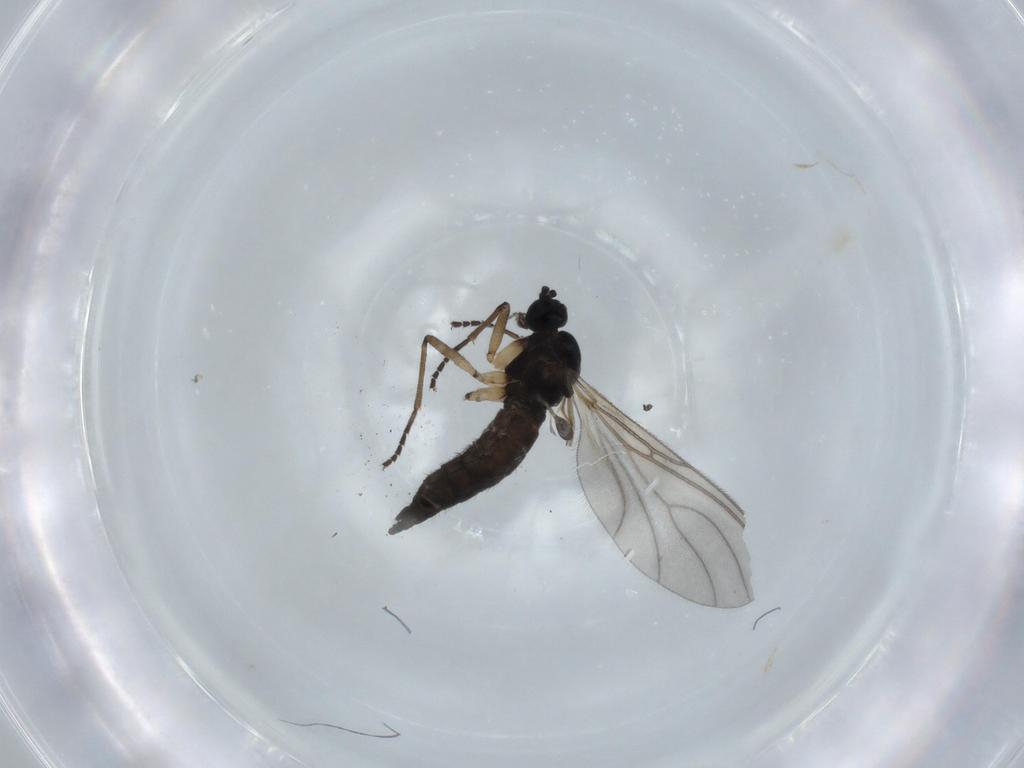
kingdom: Animalia
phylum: Arthropoda
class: Insecta
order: Diptera
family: Sciaridae
